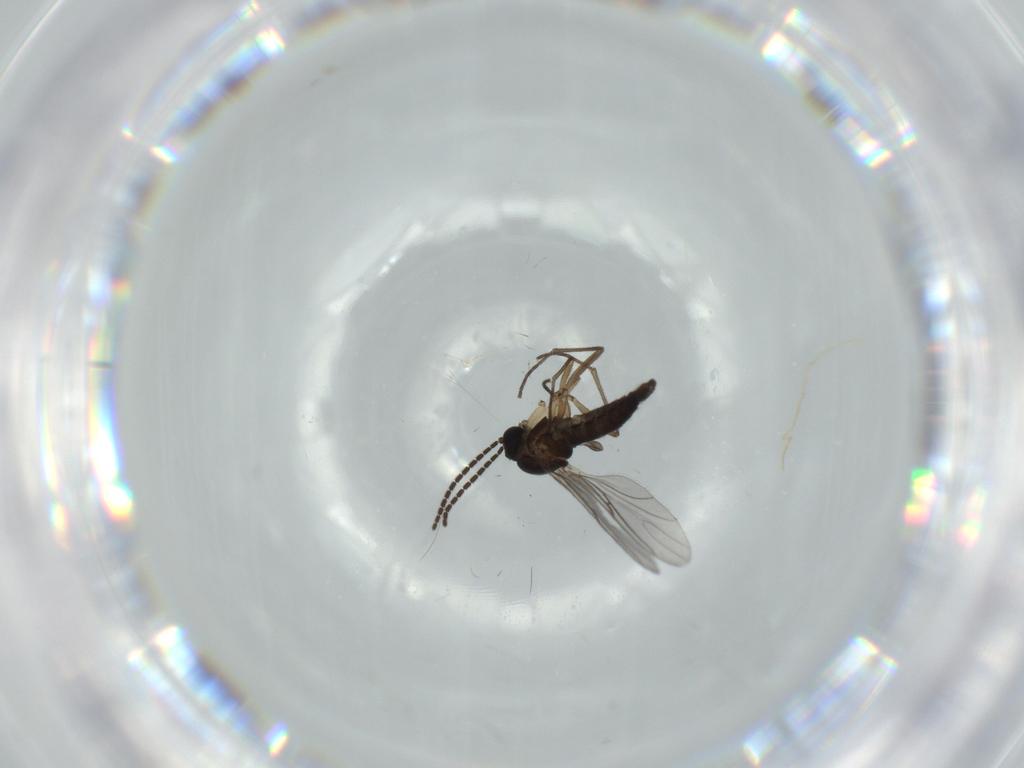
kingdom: Animalia
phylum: Arthropoda
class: Insecta
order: Diptera
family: Sciaridae
